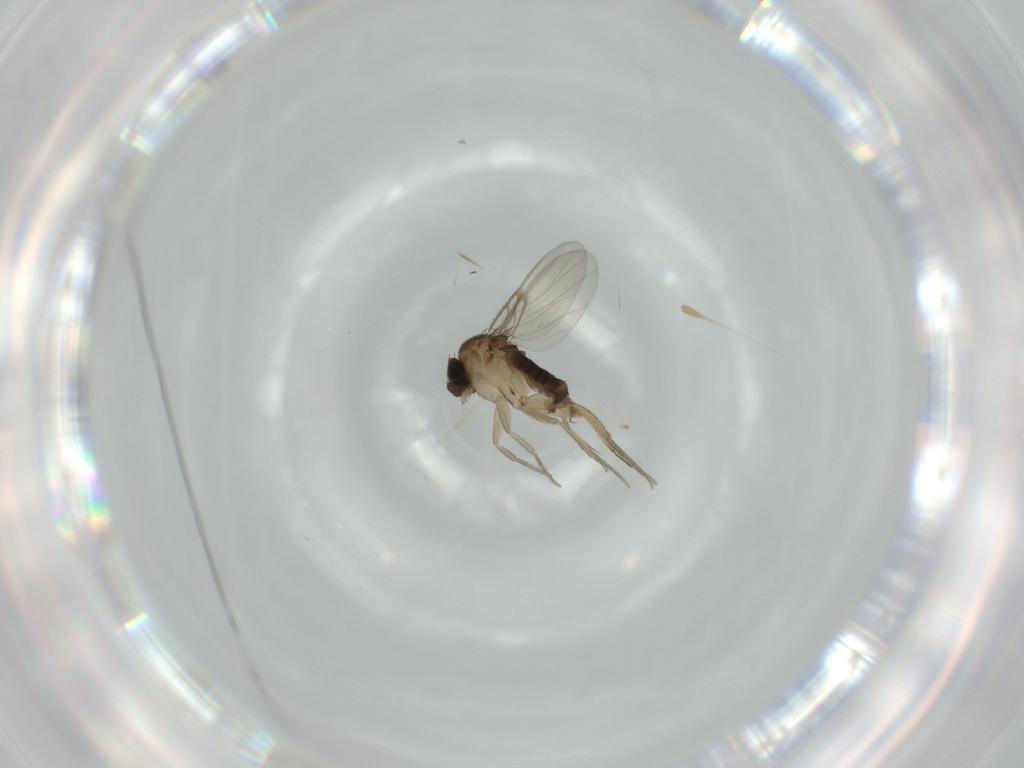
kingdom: Animalia
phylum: Arthropoda
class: Insecta
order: Diptera
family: Phoridae
